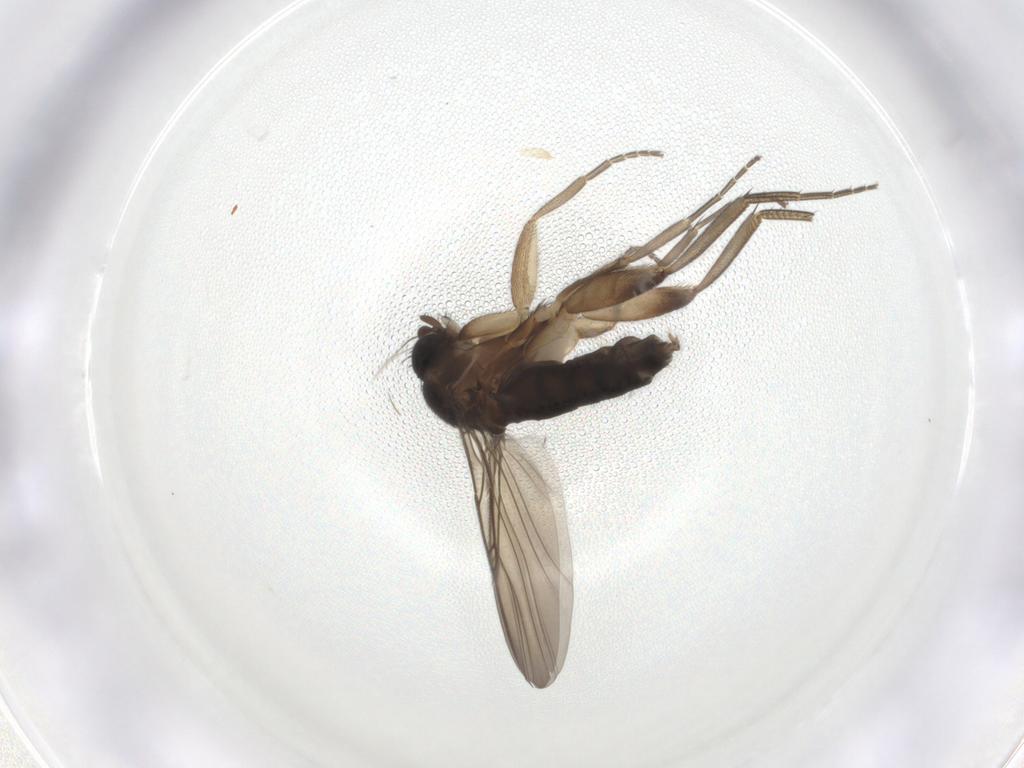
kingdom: Animalia
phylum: Arthropoda
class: Insecta
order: Diptera
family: Phoridae
